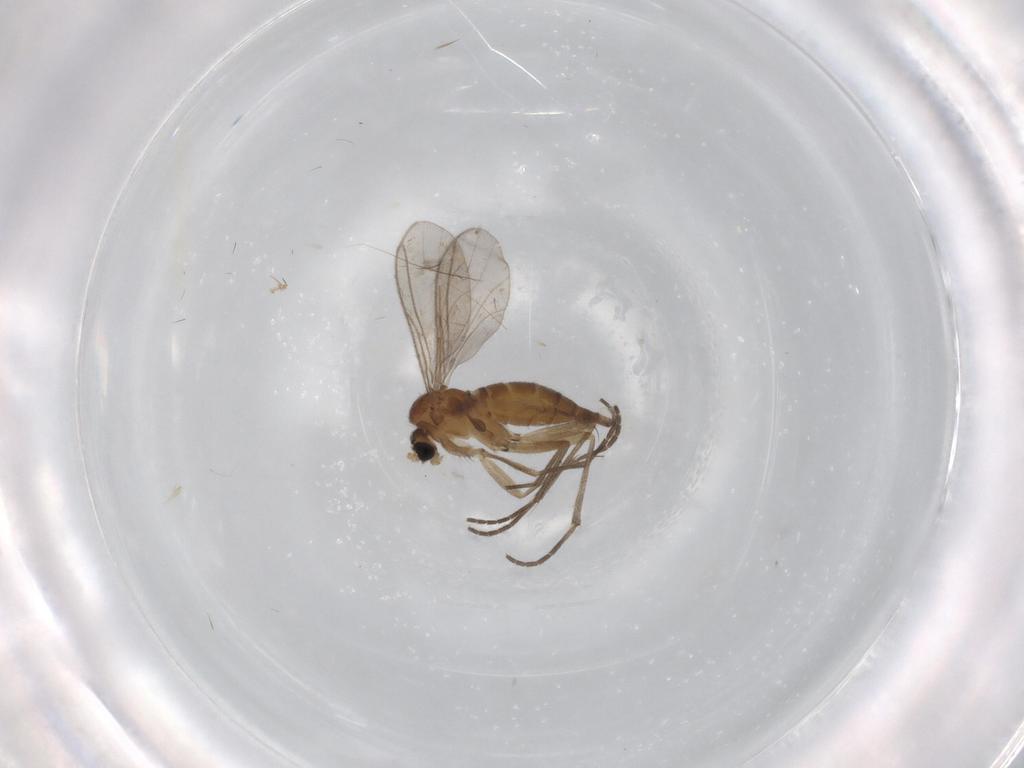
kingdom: Animalia
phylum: Arthropoda
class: Insecta
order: Diptera
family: Sciaridae
